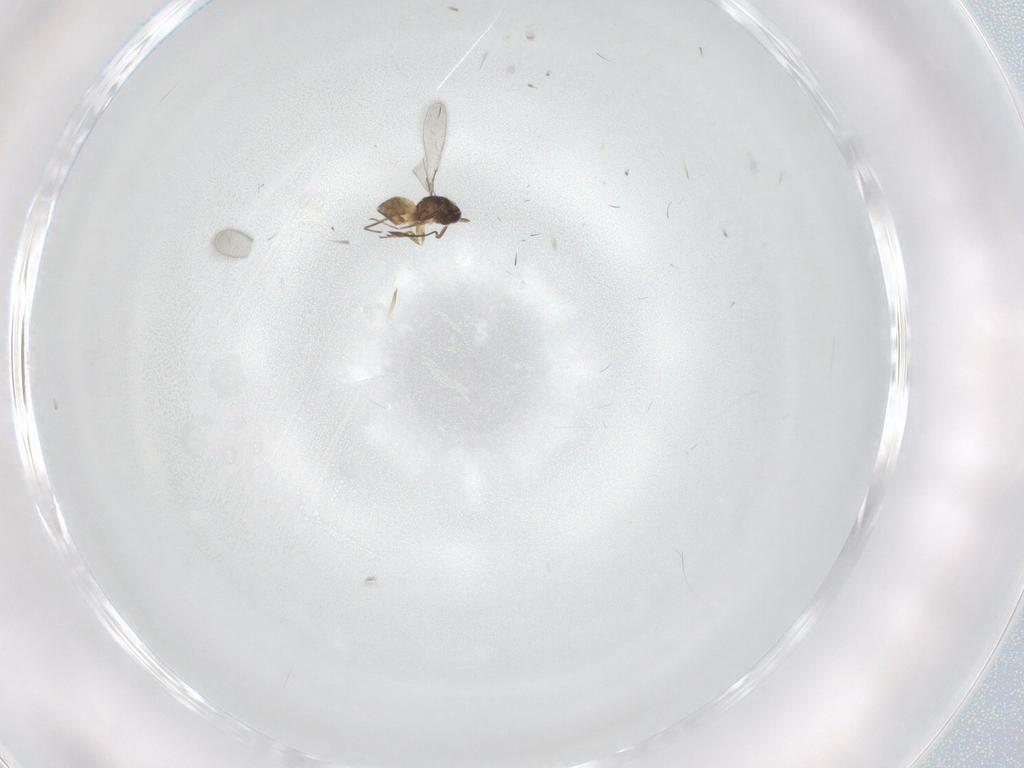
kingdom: Animalia
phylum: Arthropoda
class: Insecta
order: Hymenoptera
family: Mymaridae
